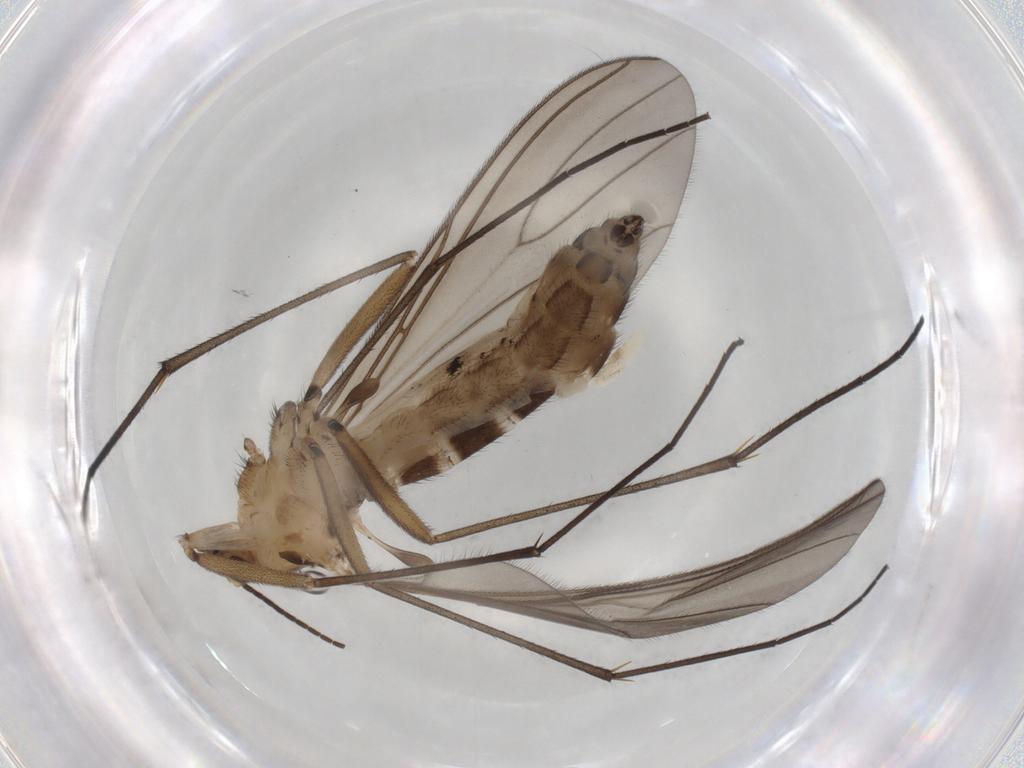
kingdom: Animalia
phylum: Arthropoda
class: Insecta
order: Diptera
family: Sciaridae
